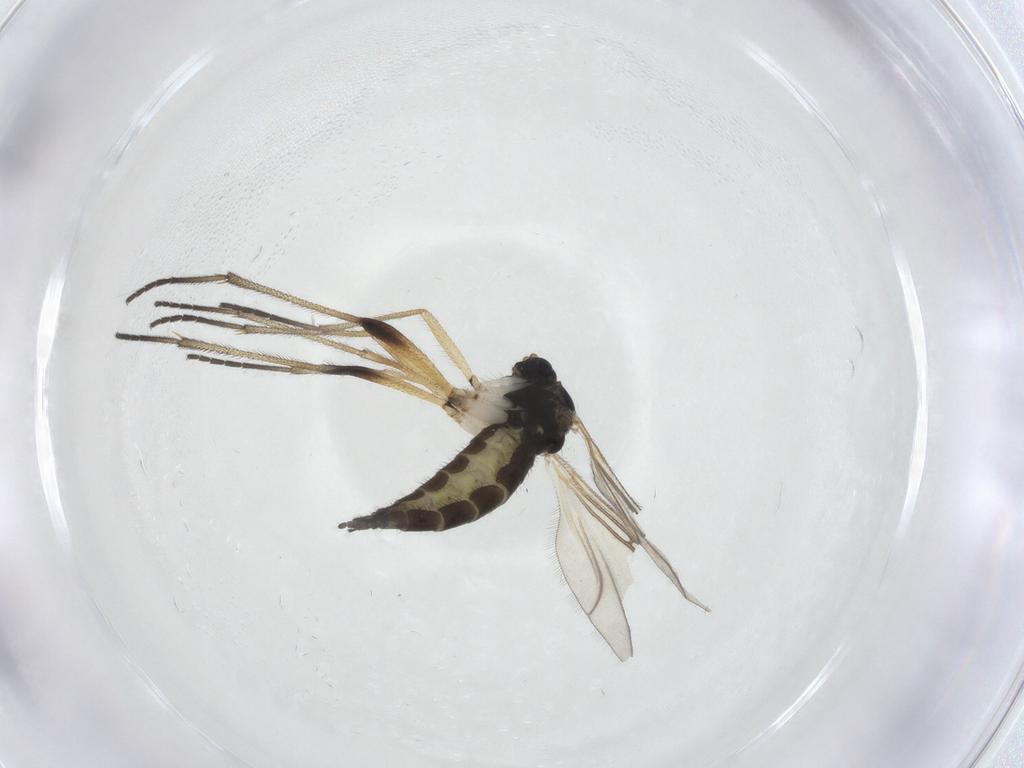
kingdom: Animalia
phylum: Arthropoda
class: Insecta
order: Diptera
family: Sciaridae
